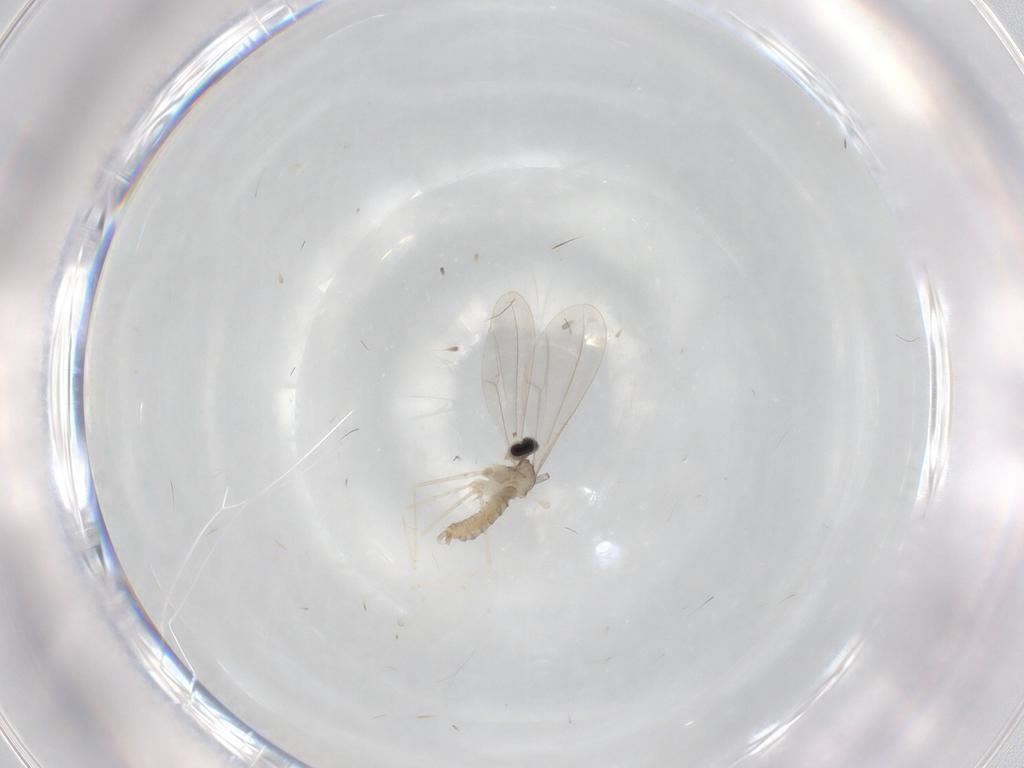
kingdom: Animalia
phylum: Arthropoda
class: Insecta
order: Diptera
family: Cecidomyiidae
